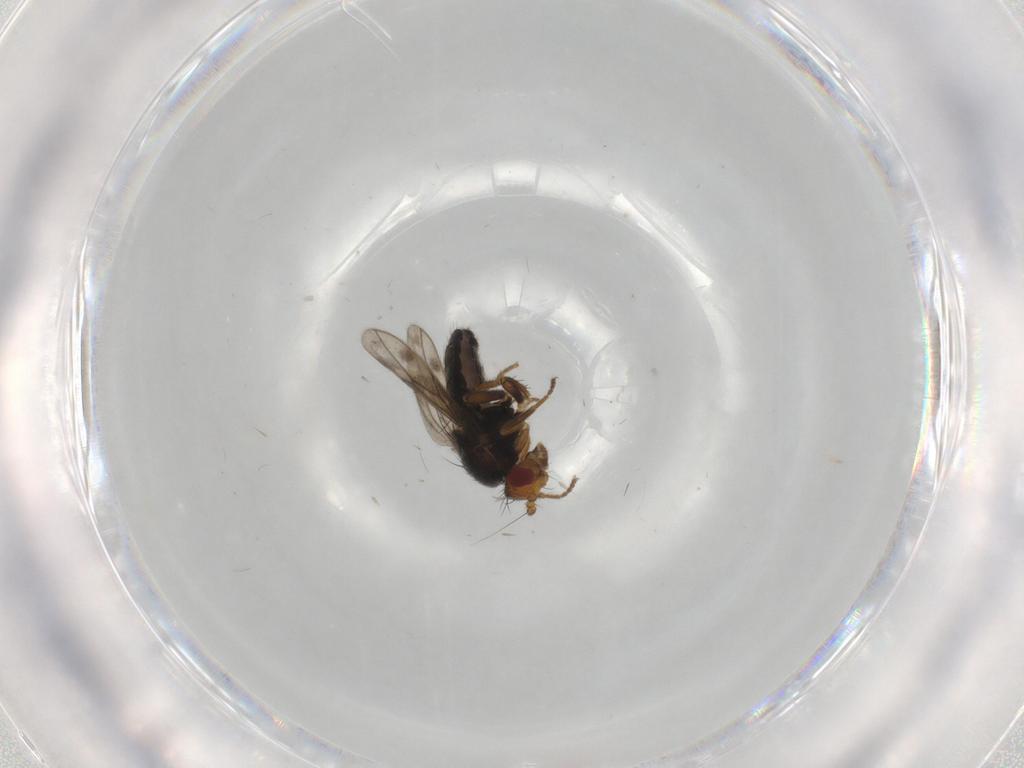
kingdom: Animalia
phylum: Arthropoda
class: Insecta
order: Diptera
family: Sphaeroceridae
